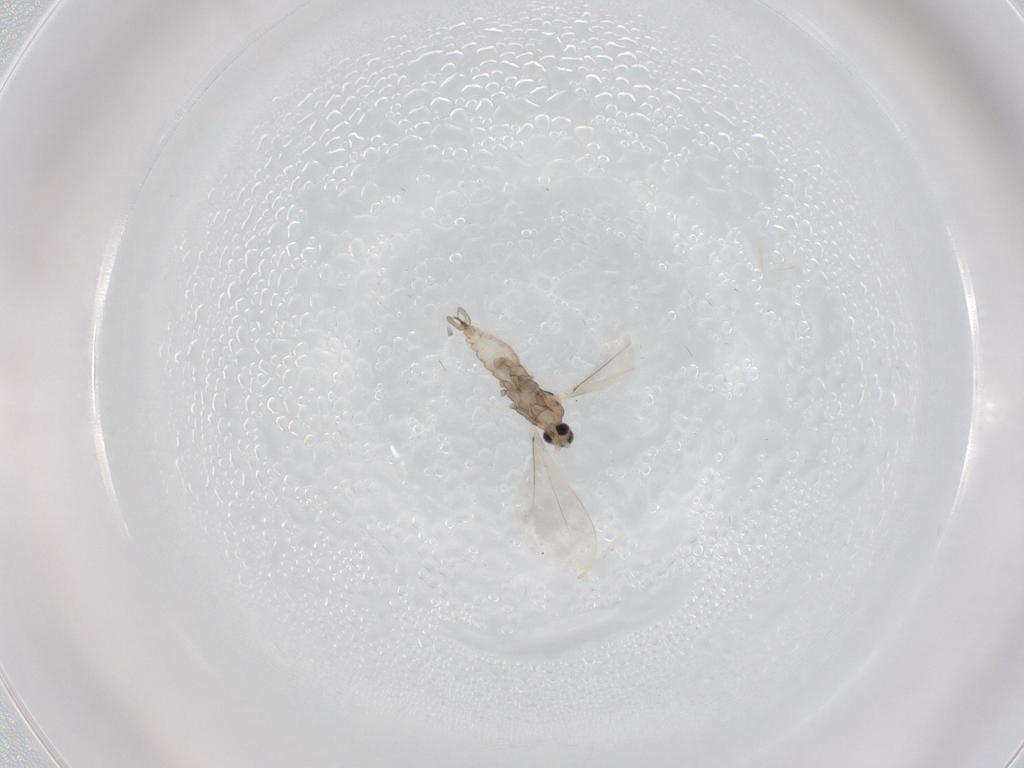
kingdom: Animalia
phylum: Arthropoda
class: Insecta
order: Diptera
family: Cecidomyiidae
